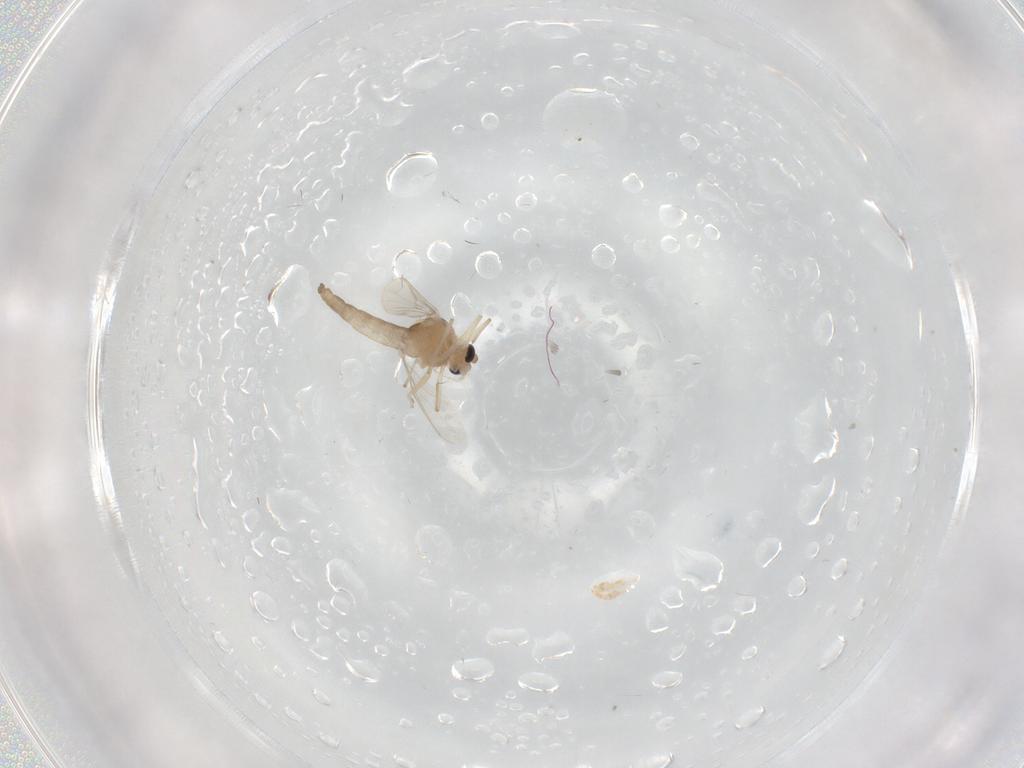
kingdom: Animalia
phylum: Arthropoda
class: Insecta
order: Diptera
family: Chironomidae
